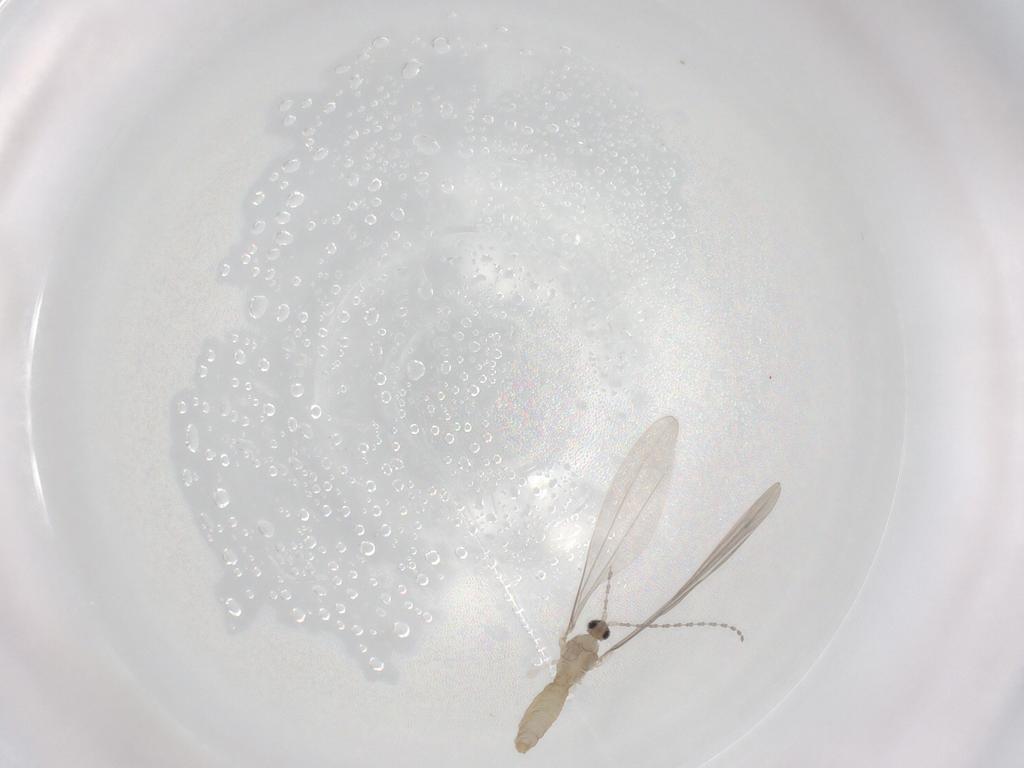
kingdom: Animalia
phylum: Arthropoda
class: Insecta
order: Diptera
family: Cecidomyiidae
